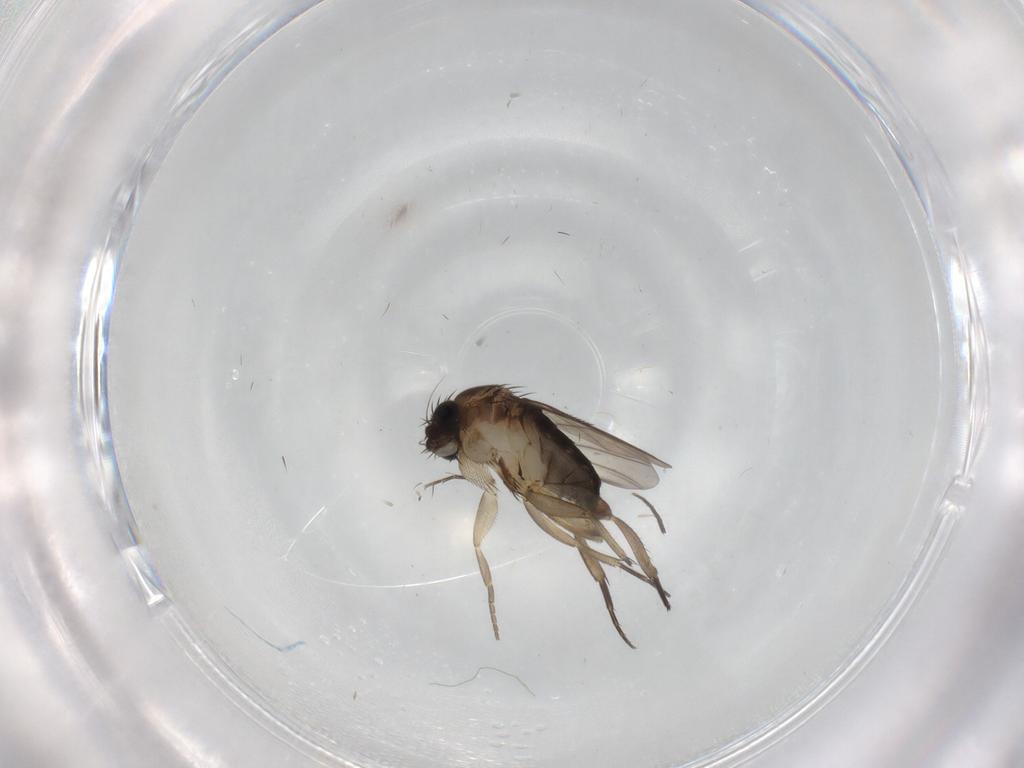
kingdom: Animalia
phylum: Arthropoda
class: Insecta
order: Diptera
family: Phoridae
